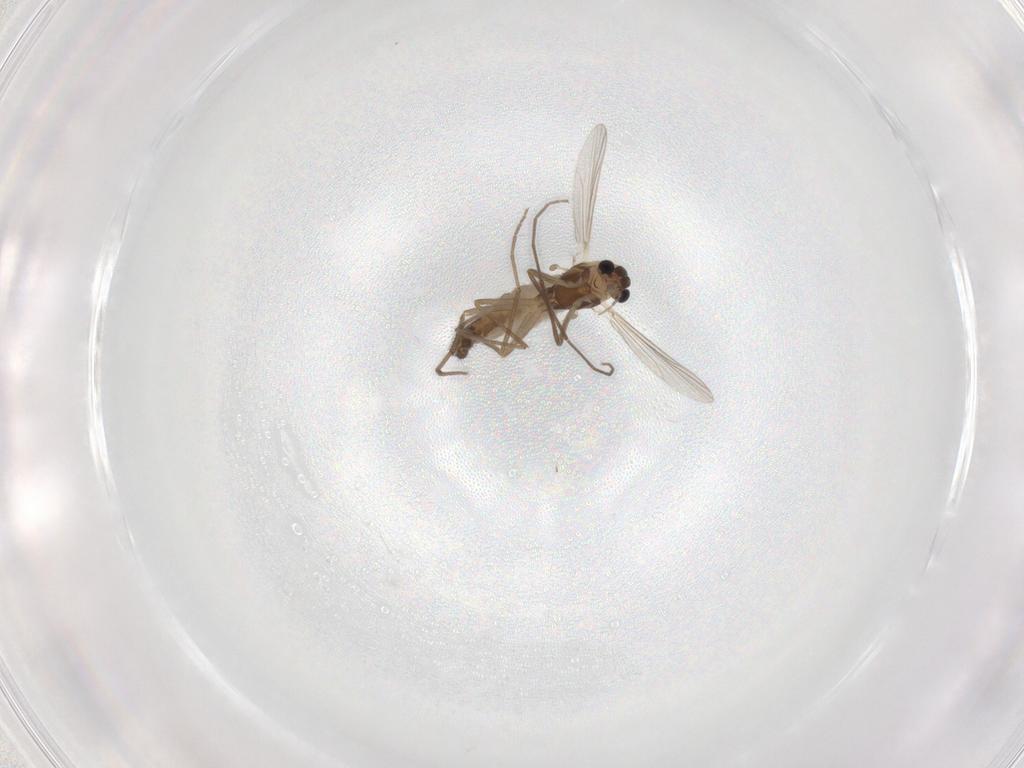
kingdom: Animalia
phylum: Arthropoda
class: Insecta
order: Diptera
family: Chironomidae
